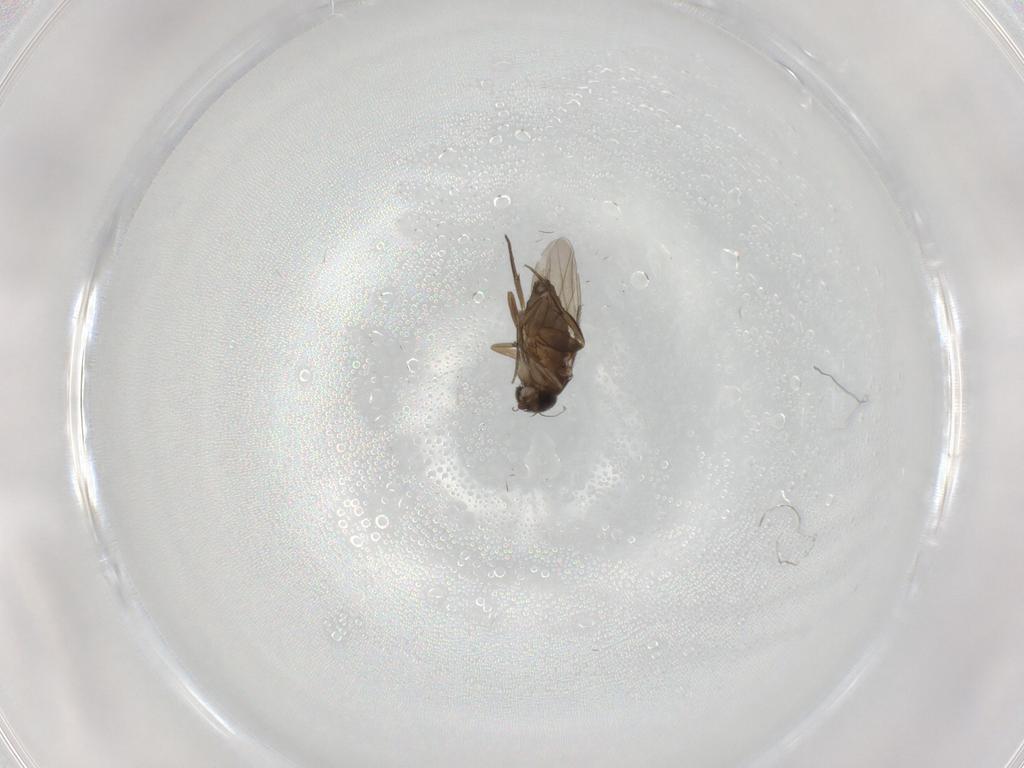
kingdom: Animalia
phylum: Arthropoda
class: Insecta
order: Diptera
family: Phoridae
